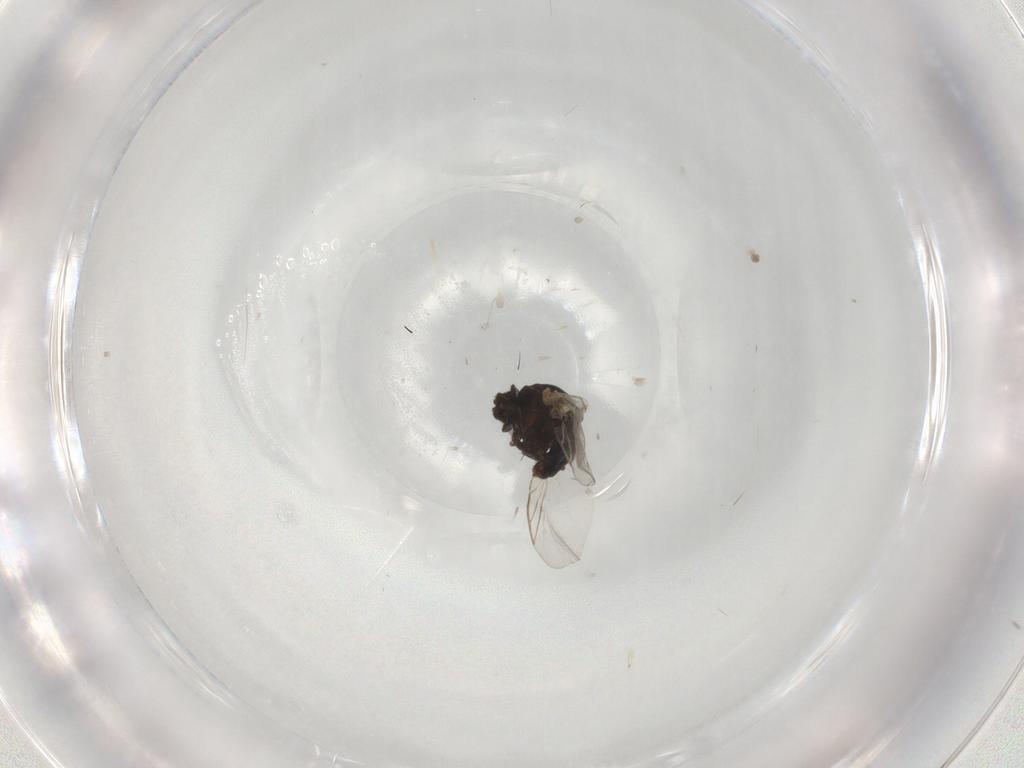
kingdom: Animalia
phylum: Arthropoda
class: Insecta
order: Diptera
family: Agromyzidae
